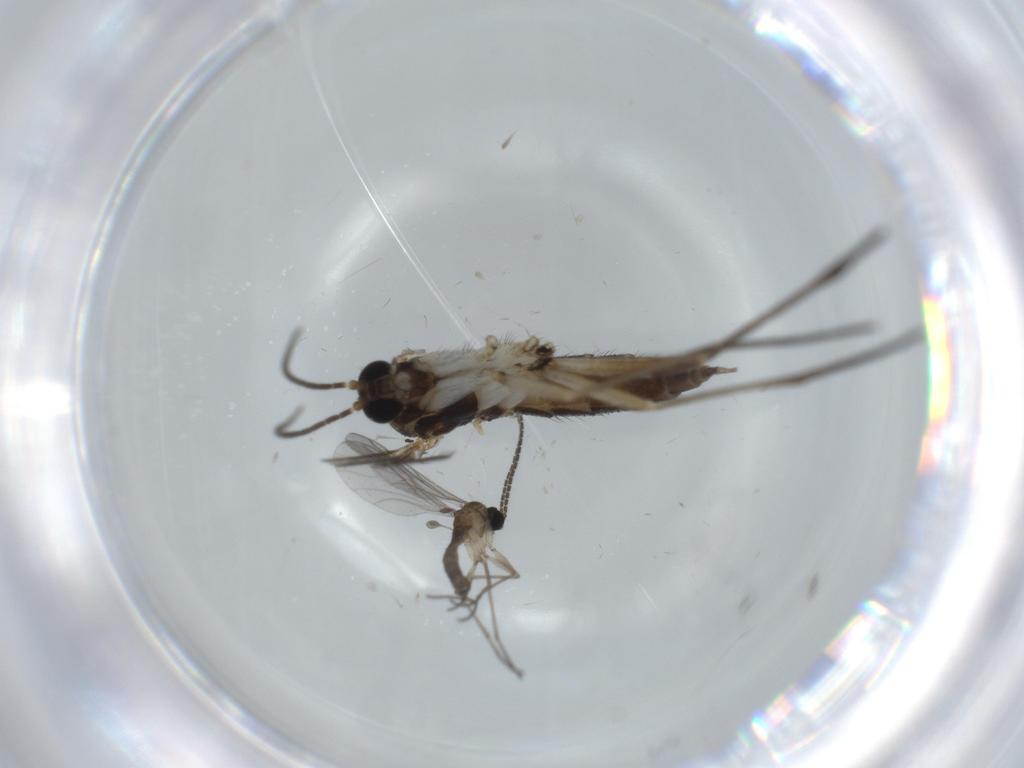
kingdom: Animalia
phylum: Arthropoda
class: Insecta
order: Diptera
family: Sciaridae
